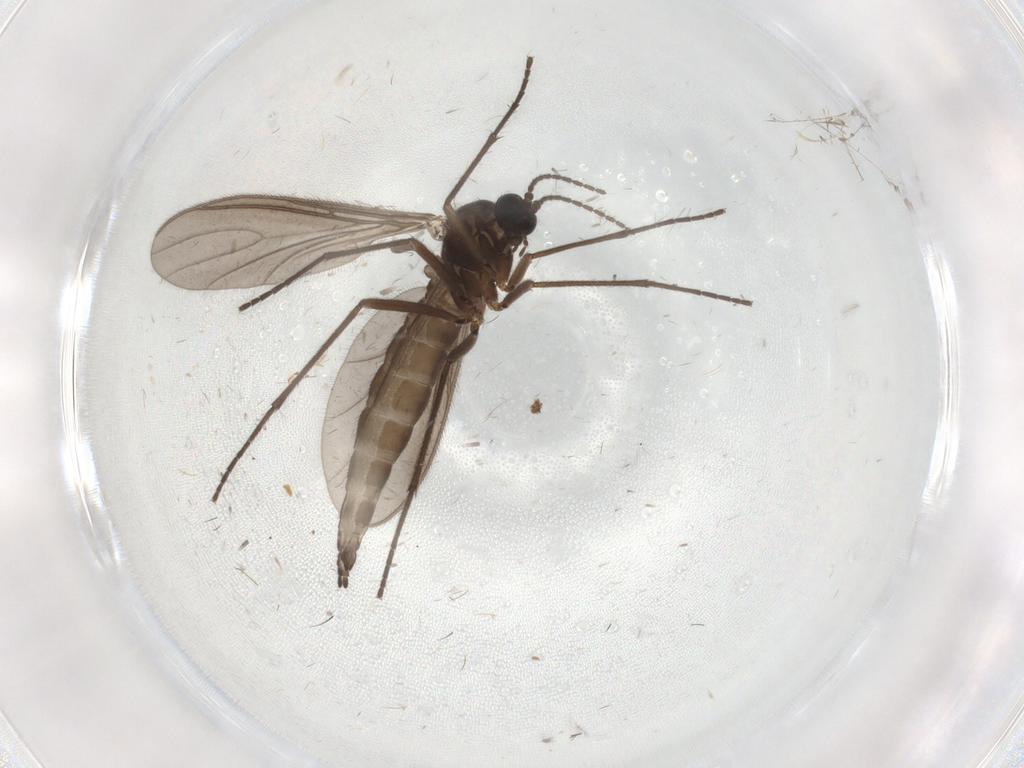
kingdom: Animalia
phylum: Arthropoda
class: Insecta
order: Diptera
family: Sciaridae
